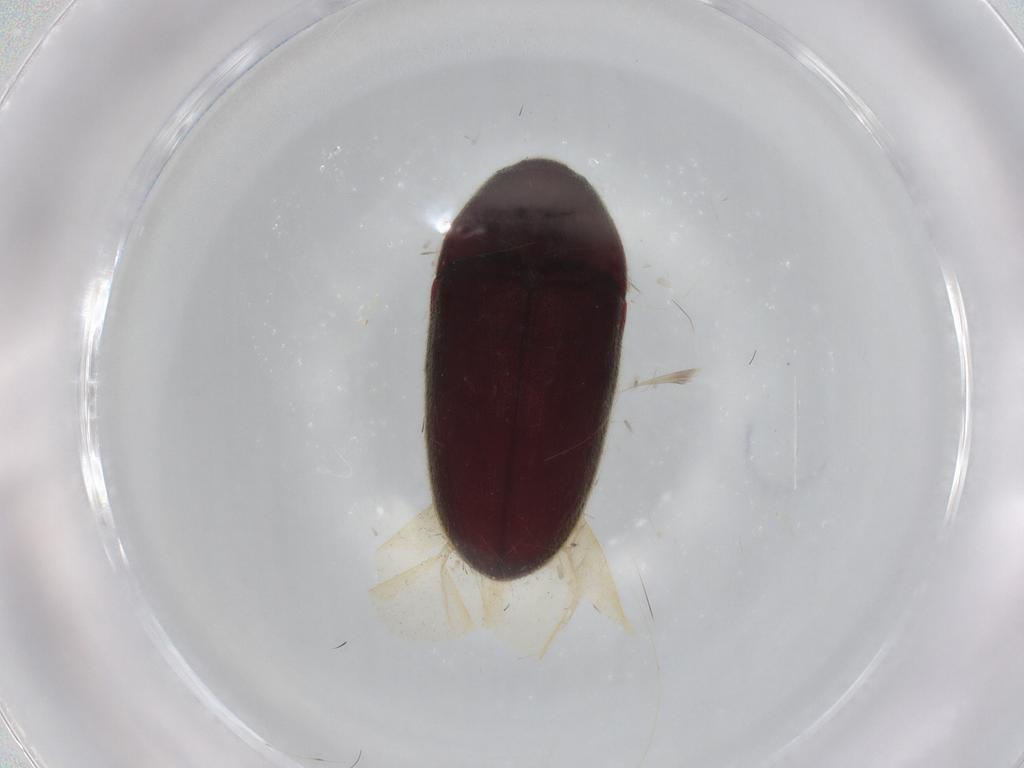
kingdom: Animalia
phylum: Arthropoda
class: Insecta
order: Coleoptera
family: Throscidae
